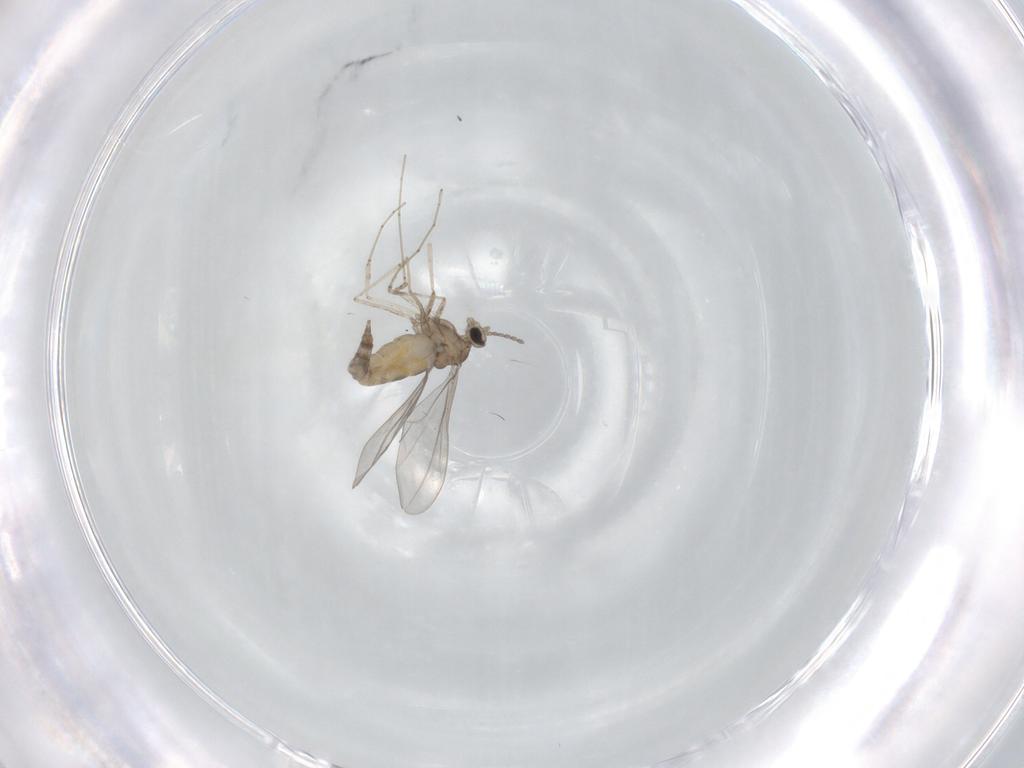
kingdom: Animalia
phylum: Arthropoda
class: Insecta
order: Diptera
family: Cecidomyiidae
